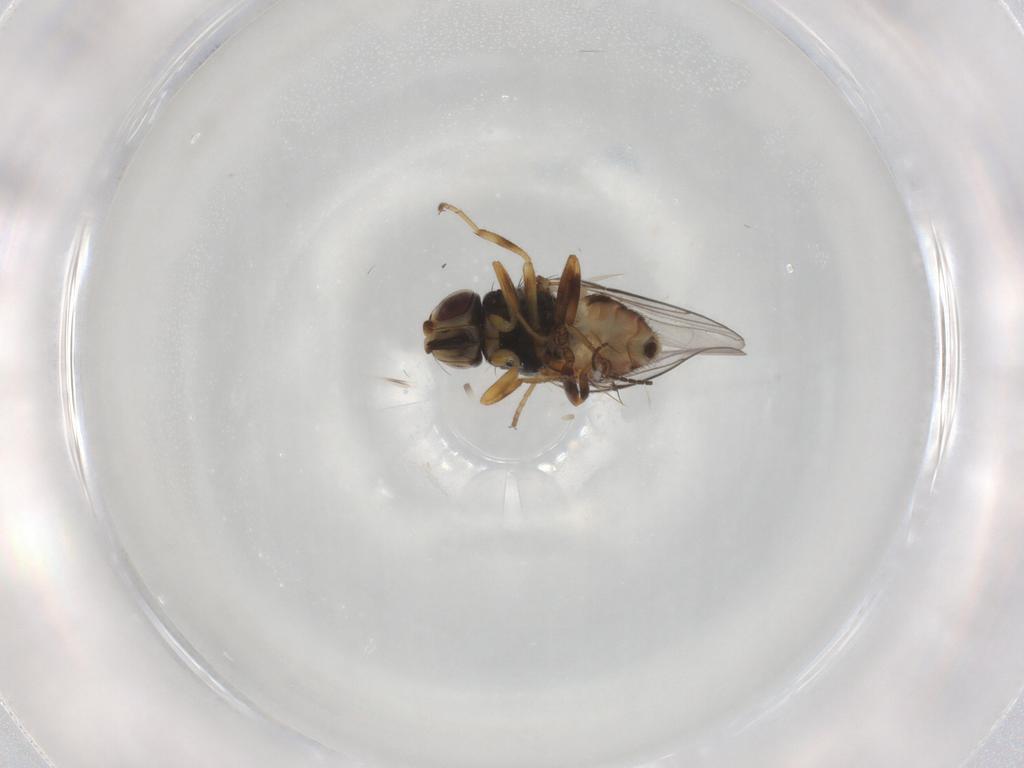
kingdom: Animalia
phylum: Arthropoda
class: Insecta
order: Diptera
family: Chloropidae
